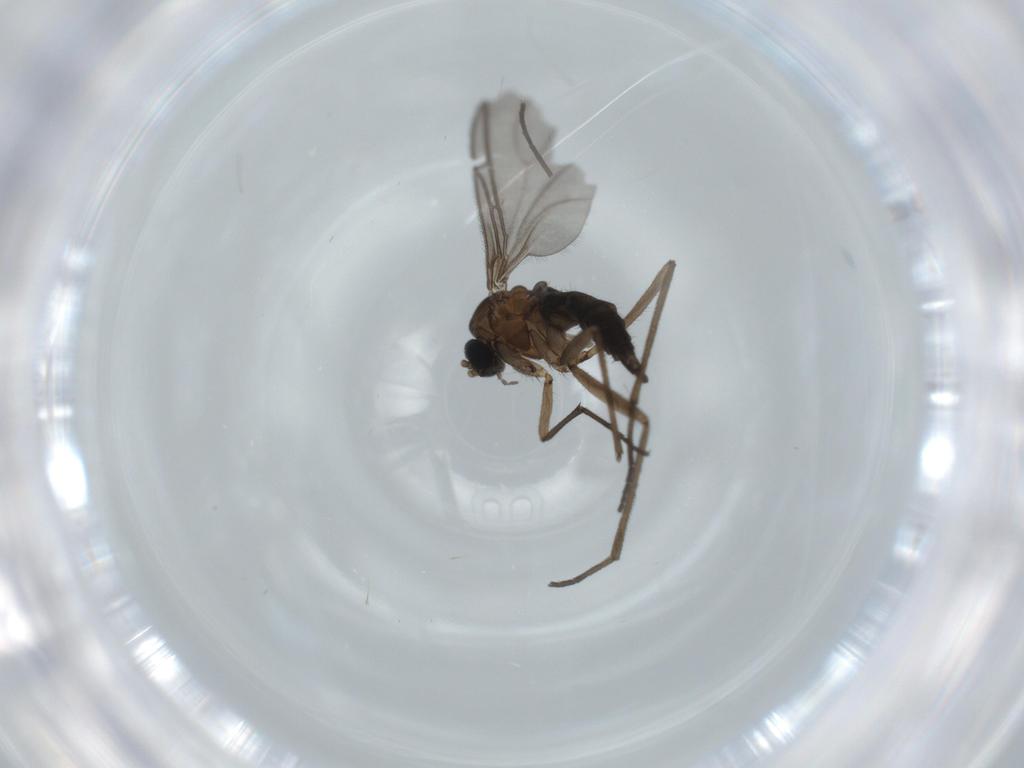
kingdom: Animalia
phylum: Arthropoda
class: Insecta
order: Diptera
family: Sciaridae
